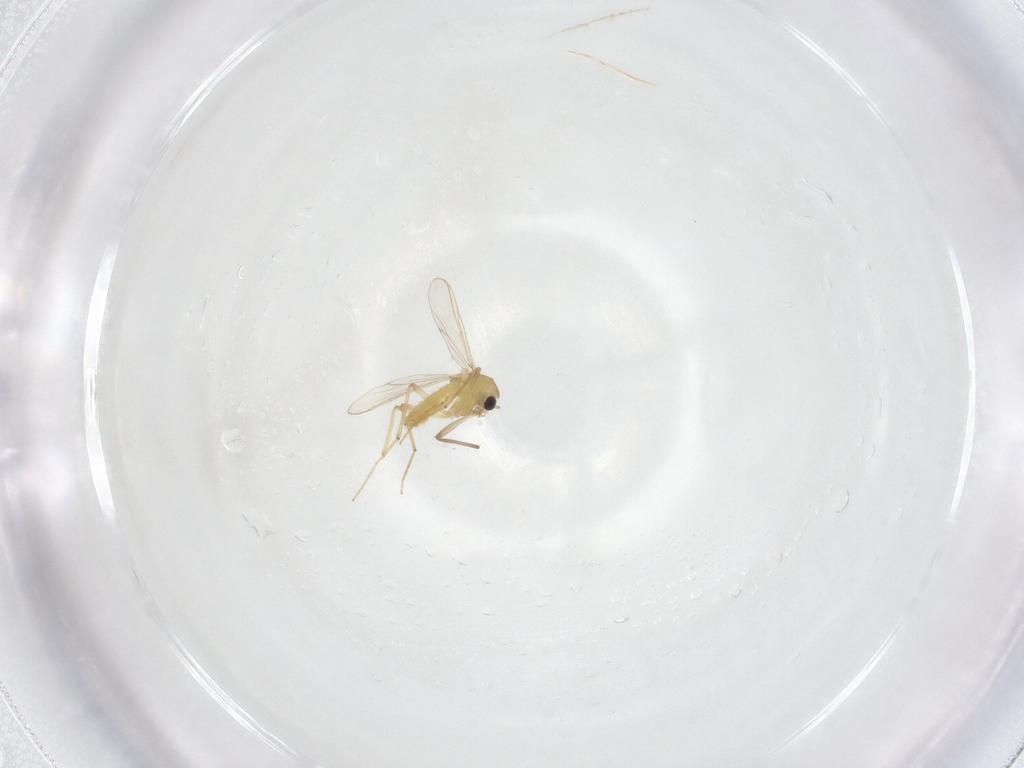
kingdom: Animalia
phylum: Arthropoda
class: Insecta
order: Diptera
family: Chironomidae
